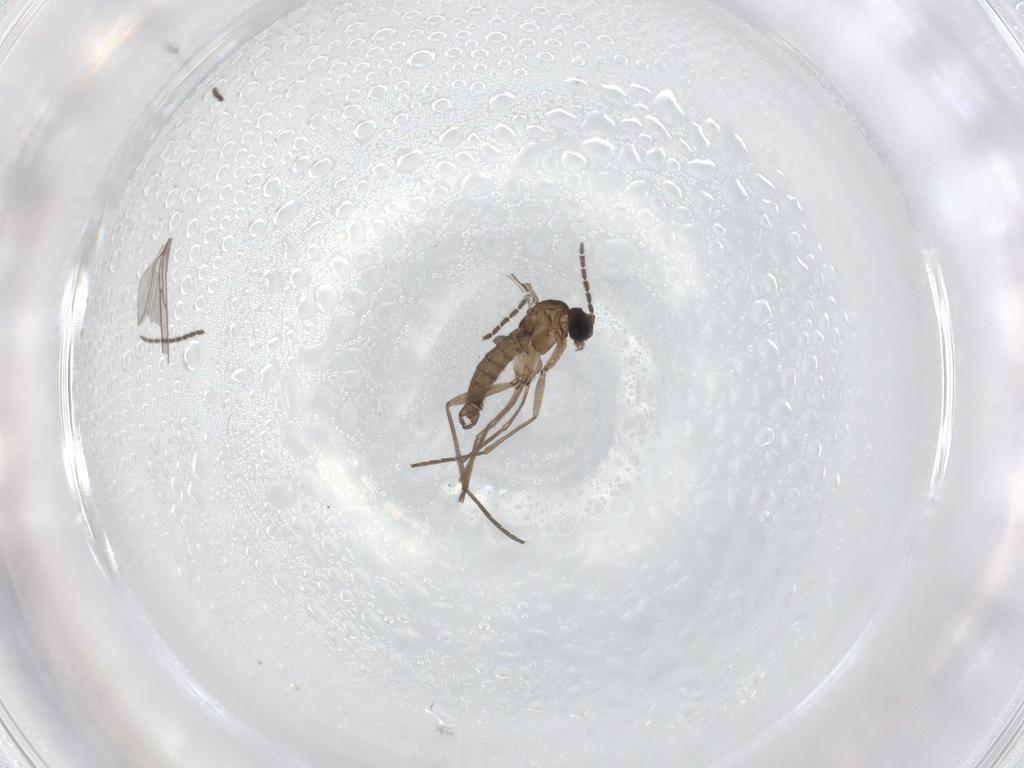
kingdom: Animalia
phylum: Arthropoda
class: Insecta
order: Diptera
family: Sciaridae
